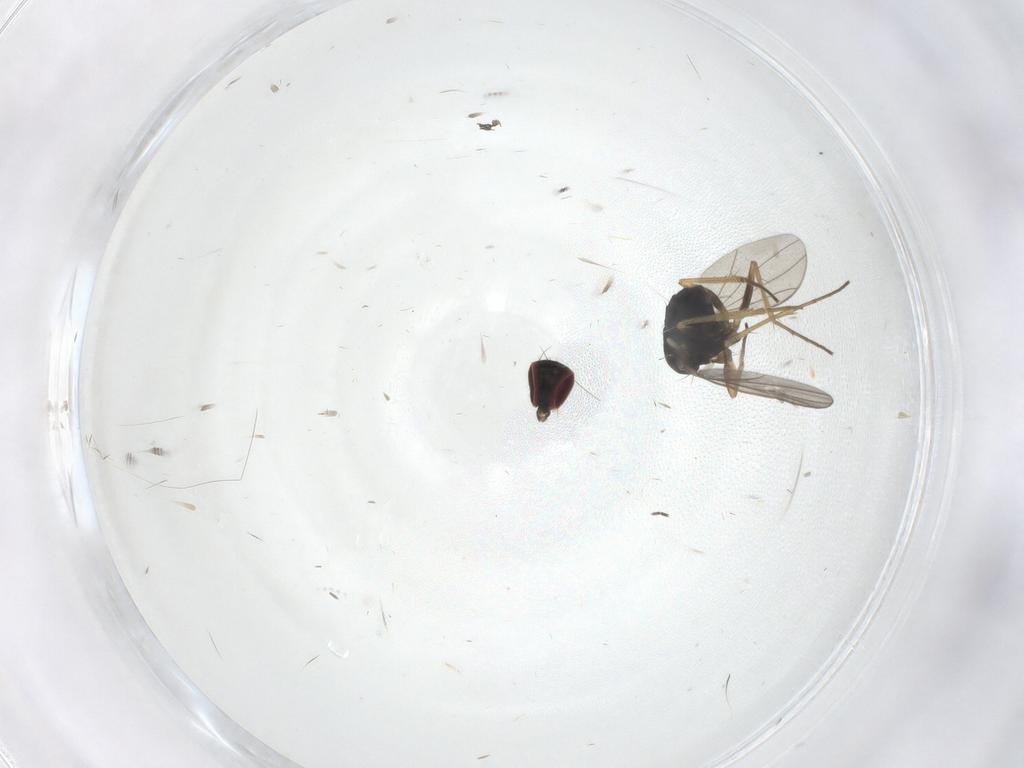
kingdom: Animalia
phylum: Arthropoda
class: Insecta
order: Diptera
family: Dolichopodidae
